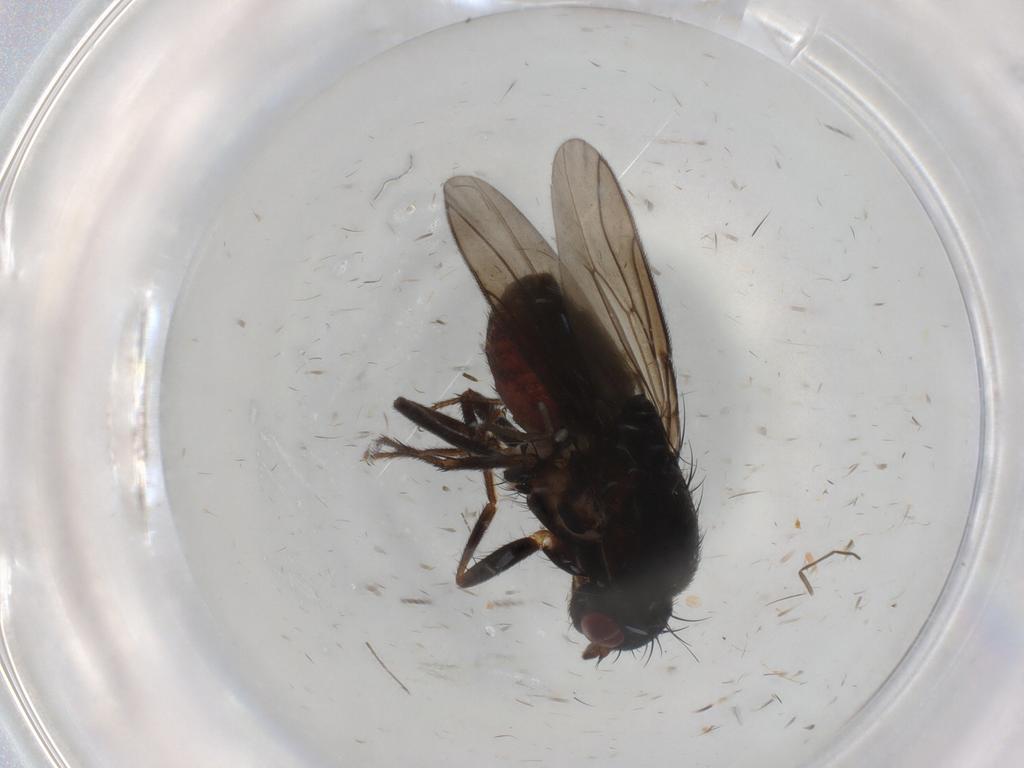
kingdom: Animalia
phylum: Arthropoda
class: Insecta
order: Diptera
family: Sphaeroceridae
